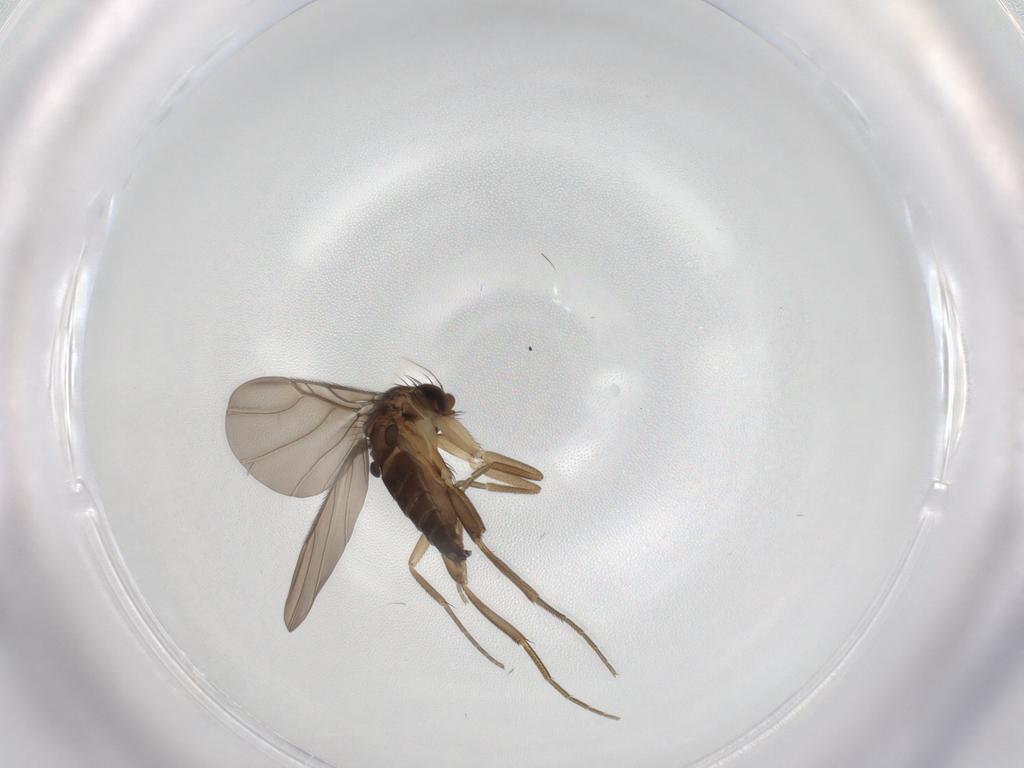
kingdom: Animalia
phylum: Arthropoda
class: Insecta
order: Diptera
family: Phoridae
